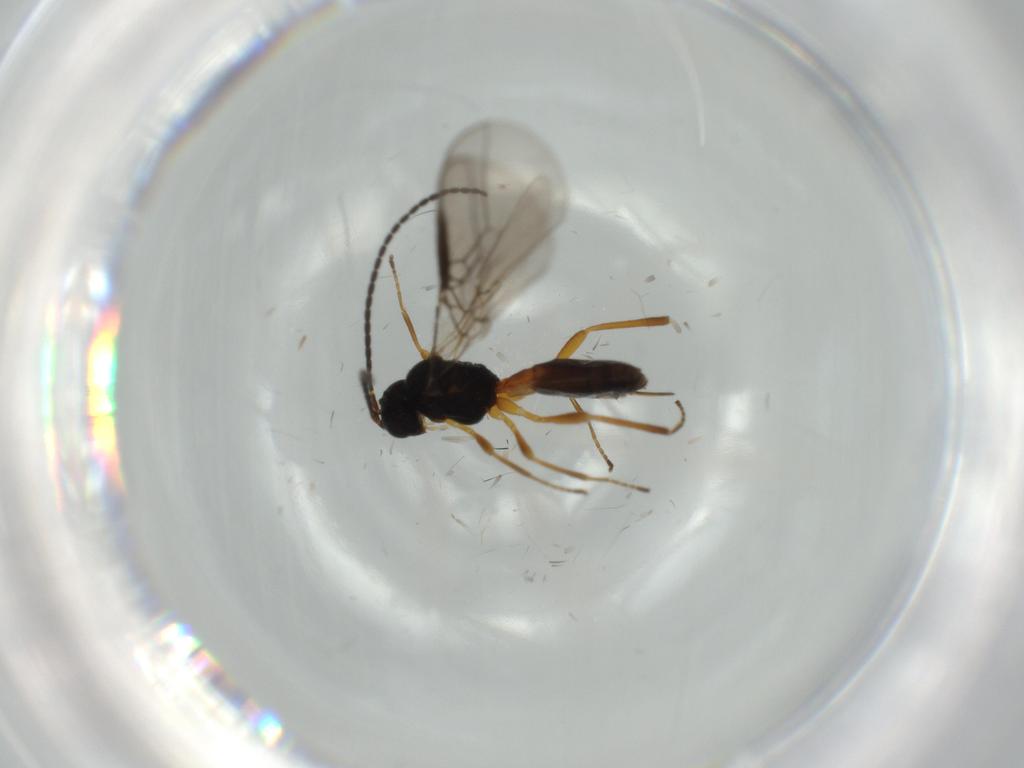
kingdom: Animalia
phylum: Arthropoda
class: Insecta
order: Hymenoptera
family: Braconidae
